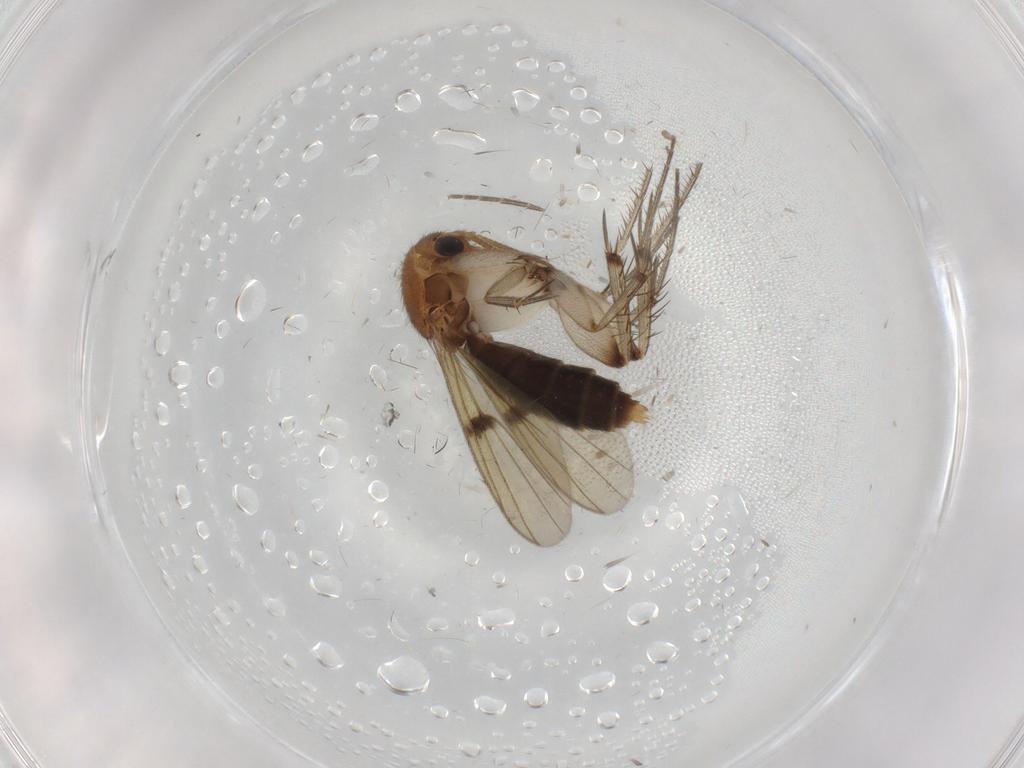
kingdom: Animalia
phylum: Arthropoda
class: Insecta
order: Diptera
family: Mycetophilidae
